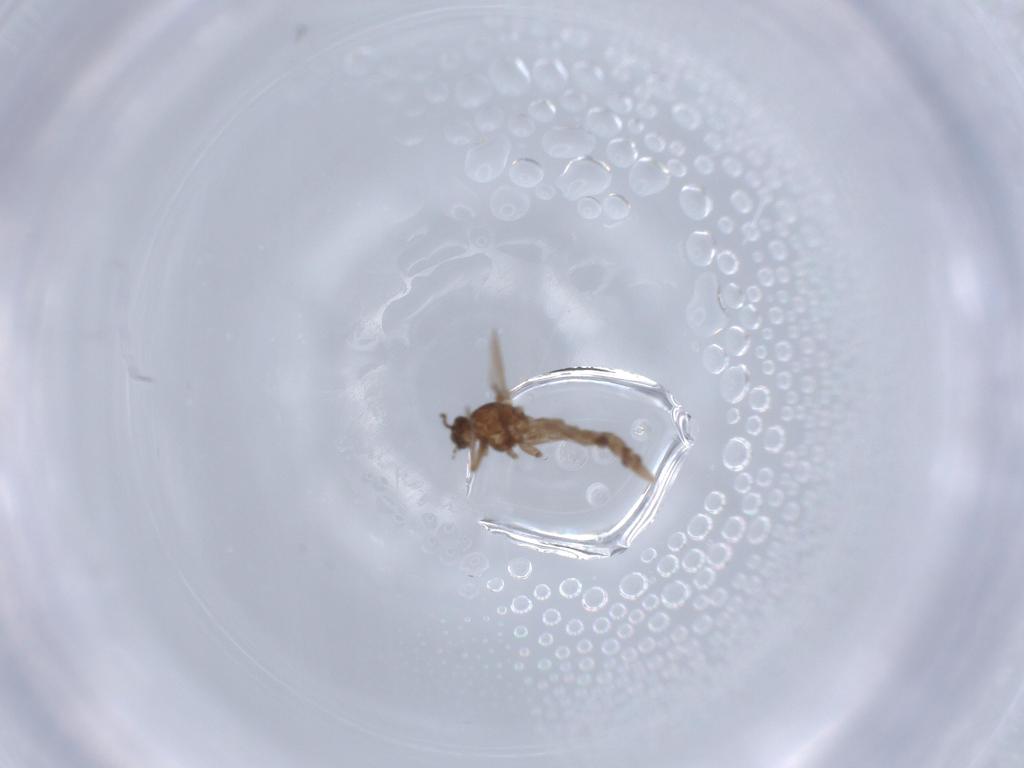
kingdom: Animalia
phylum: Arthropoda
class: Insecta
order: Diptera
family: Ceratopogonidae
